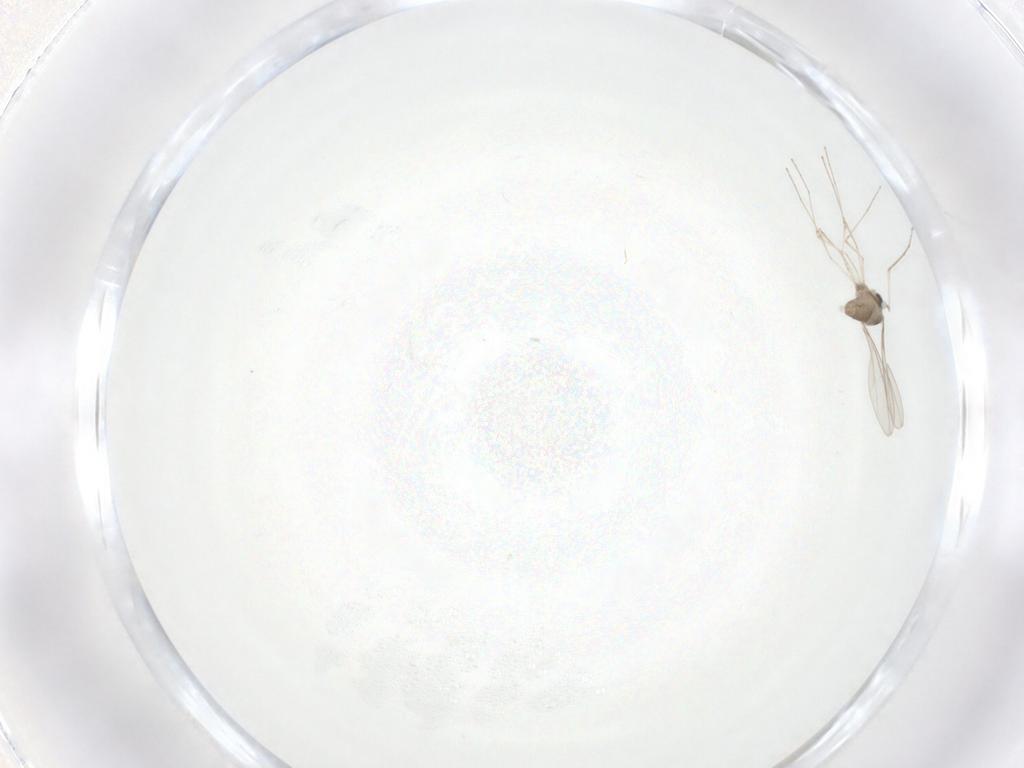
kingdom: Animalia
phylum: Arthropoda
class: Insecta
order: Diptera
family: Cecidomyiidae
